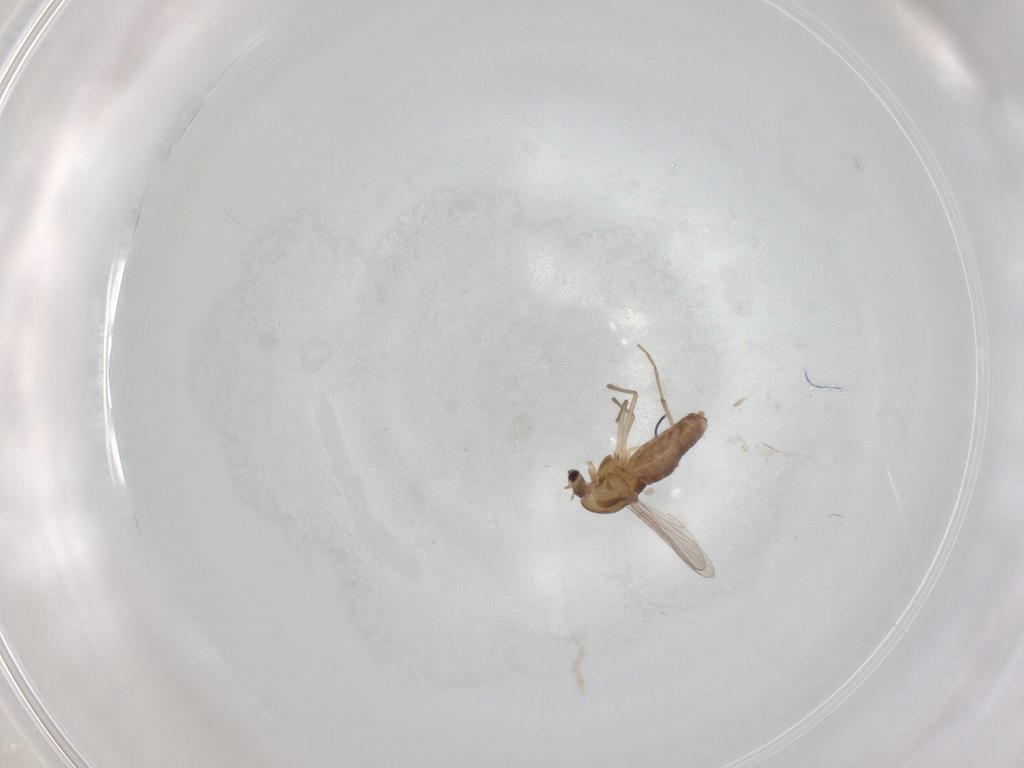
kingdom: Animalia
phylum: Arthropoda
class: Insecta
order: Diptera
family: Chironomidae
